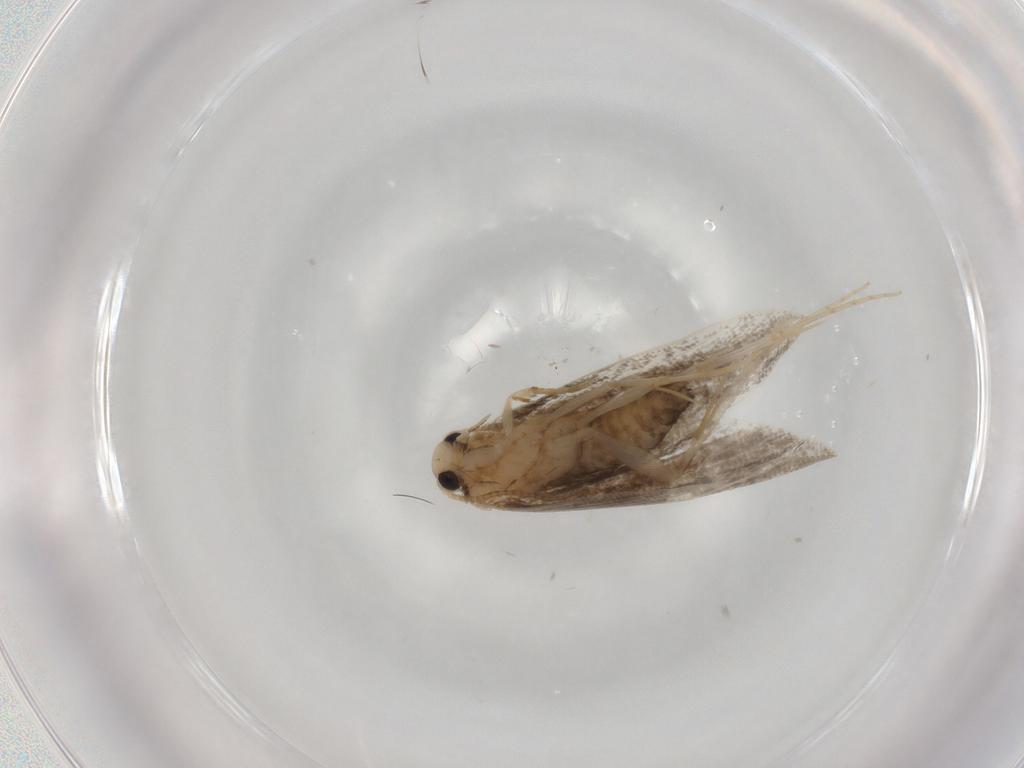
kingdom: Animalia
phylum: Arthropoda
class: Insecta
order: Lepidoptera
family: Psychidae
